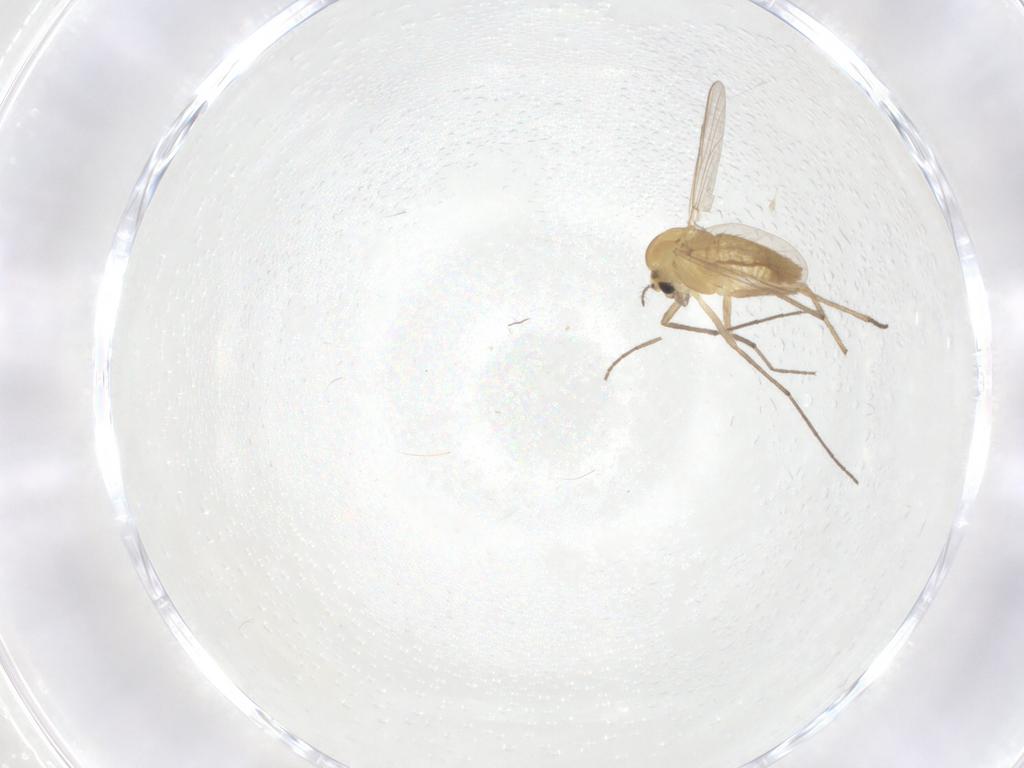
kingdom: Animalia
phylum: Arthropoda
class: Insecta
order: Diptera
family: Chironomidae
